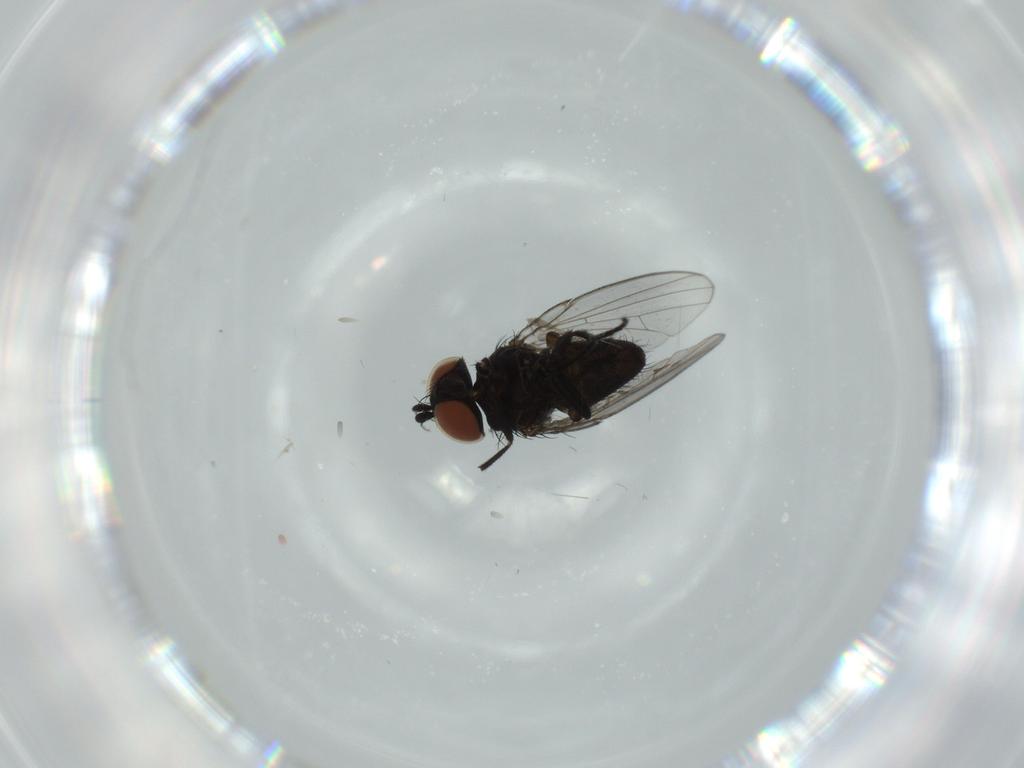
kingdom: Animalia
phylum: Arthropoda
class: Insecta
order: Diptera
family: Milichiidae
